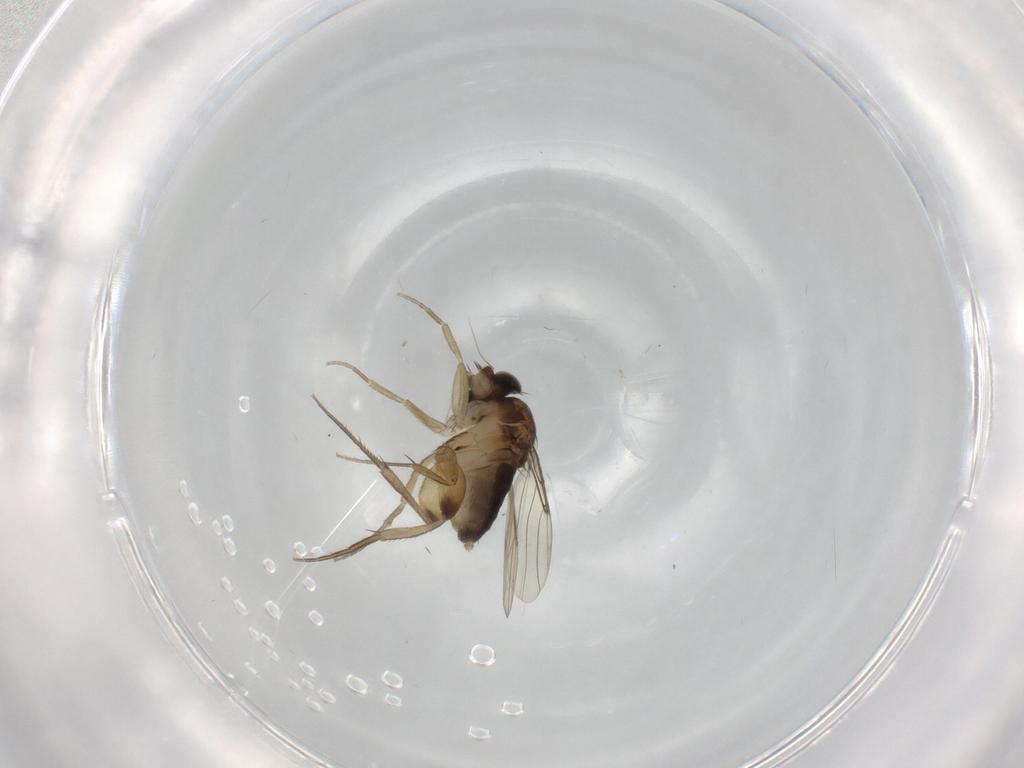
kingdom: Animalia
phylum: Arthropoda
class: Insecta
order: Diptera
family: Phoridae
